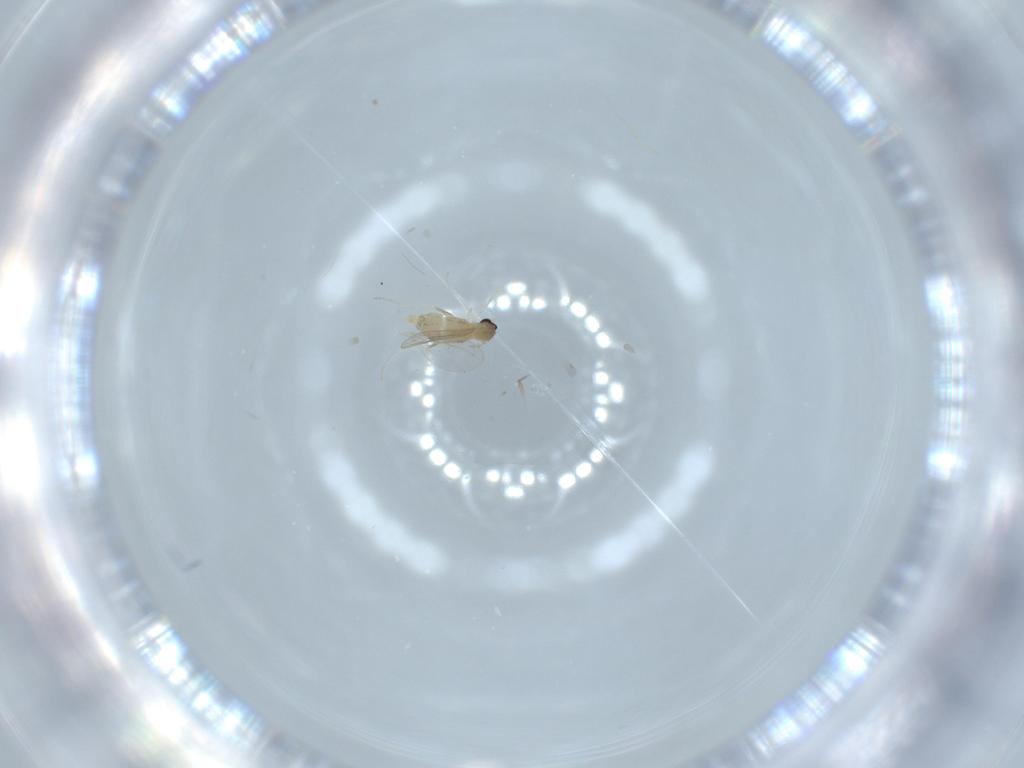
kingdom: Animalia
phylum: Arthropoda
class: Insecta
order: Diptera
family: Cecidomyiidae
